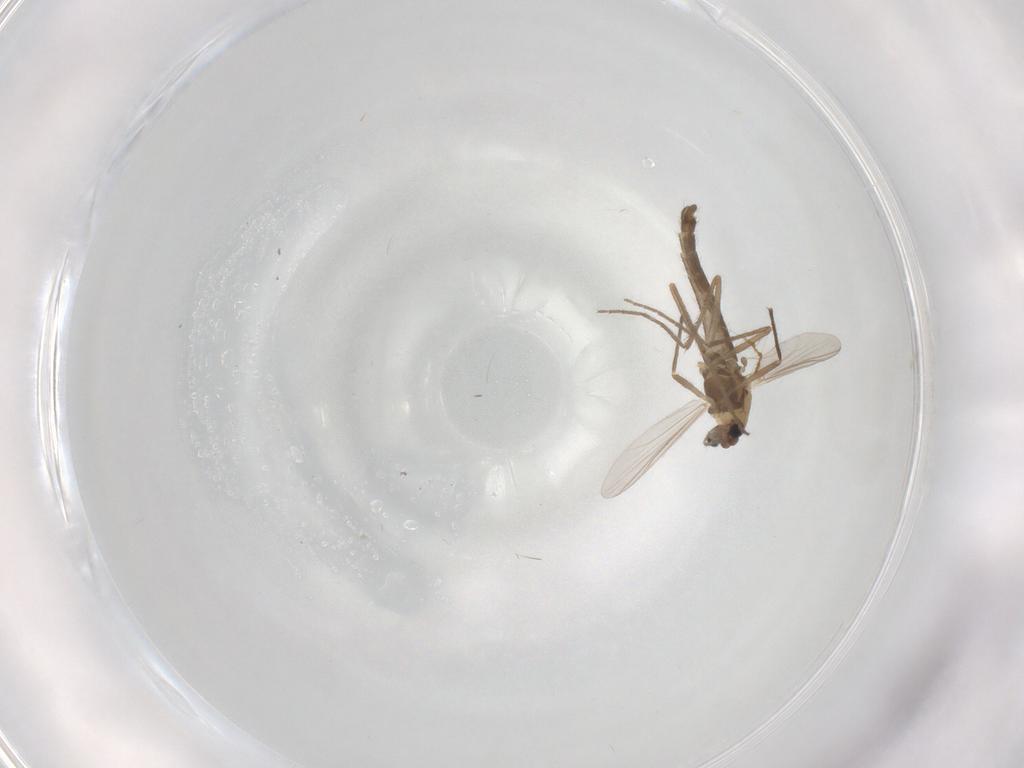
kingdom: Animalia
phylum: Arthropoda
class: Insecta
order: Diptera
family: Chironomidae
